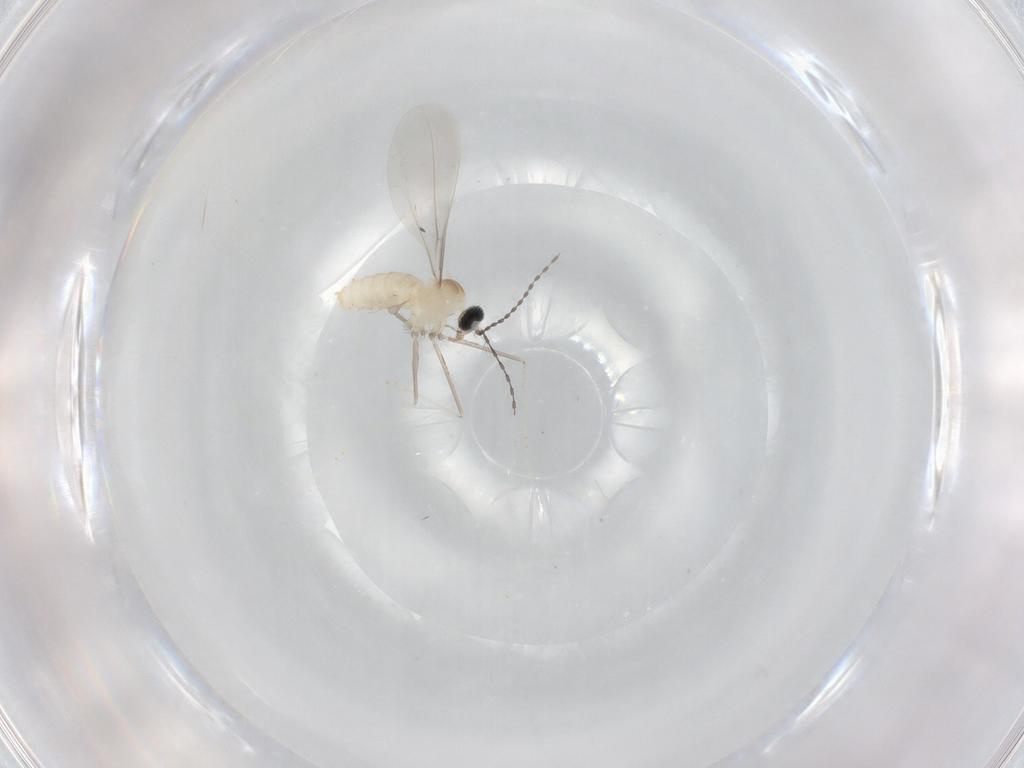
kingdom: Animalia
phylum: Arthropoda
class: Insecta
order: Diptera
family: Cecidomyiidae
